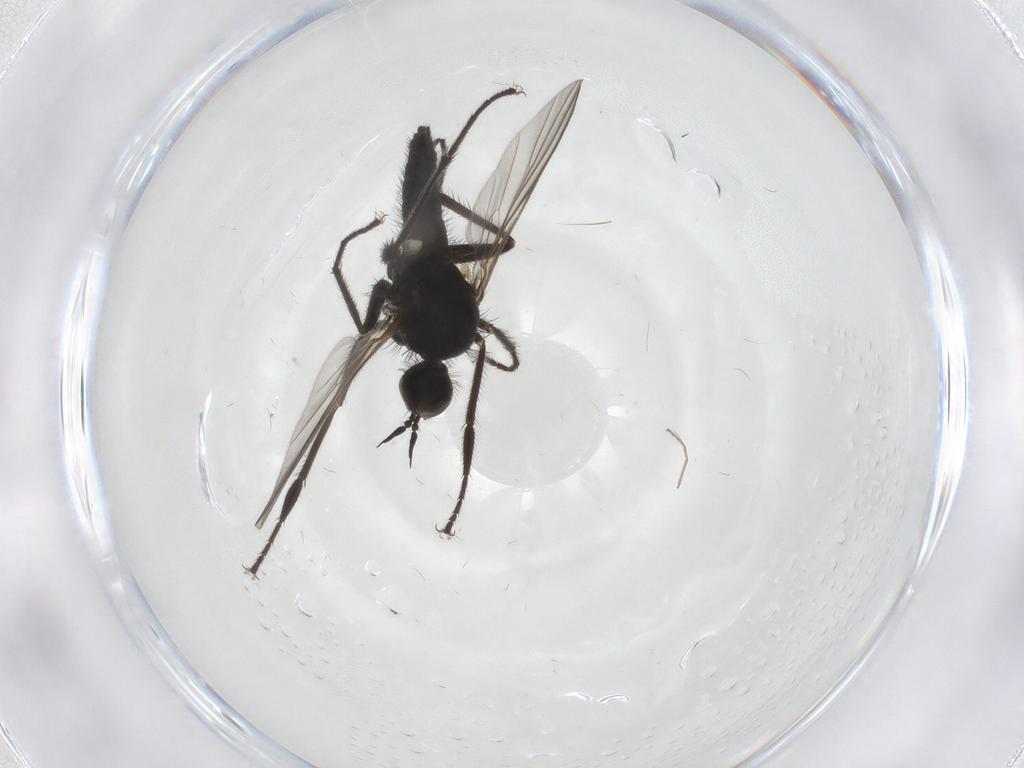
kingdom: Animalia
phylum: Arthropoda
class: Insecta
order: Diptera
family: Empididae
